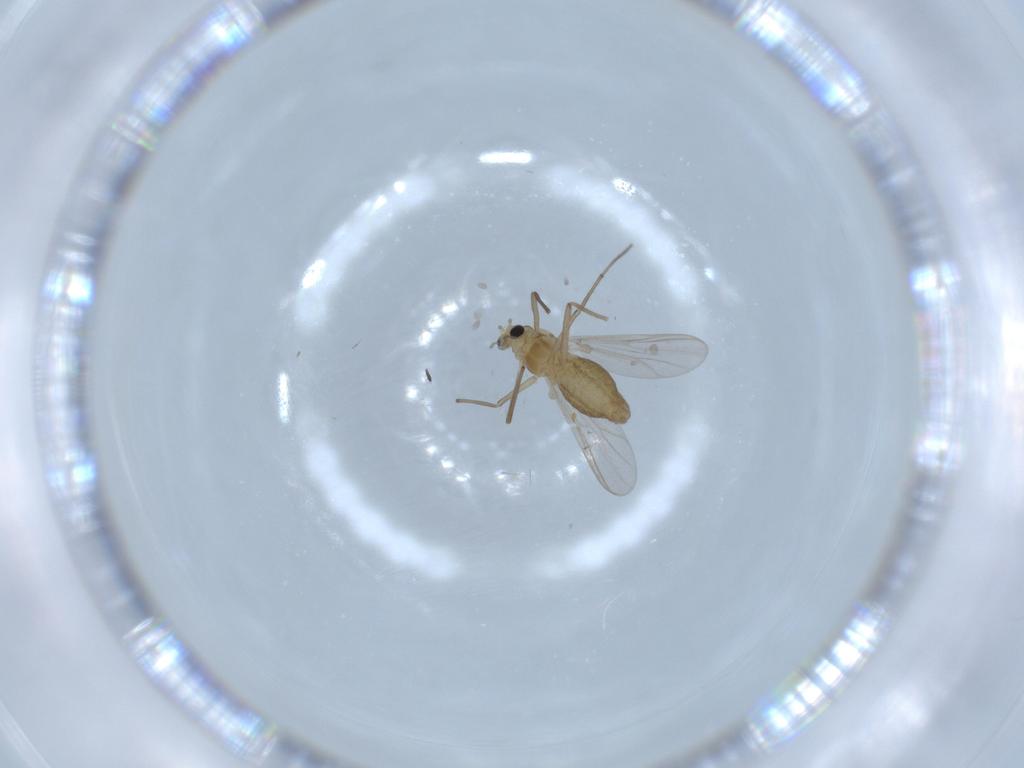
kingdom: Animalia
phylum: Arthropoda
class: Insecta
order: Diptera
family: Chironomidae
